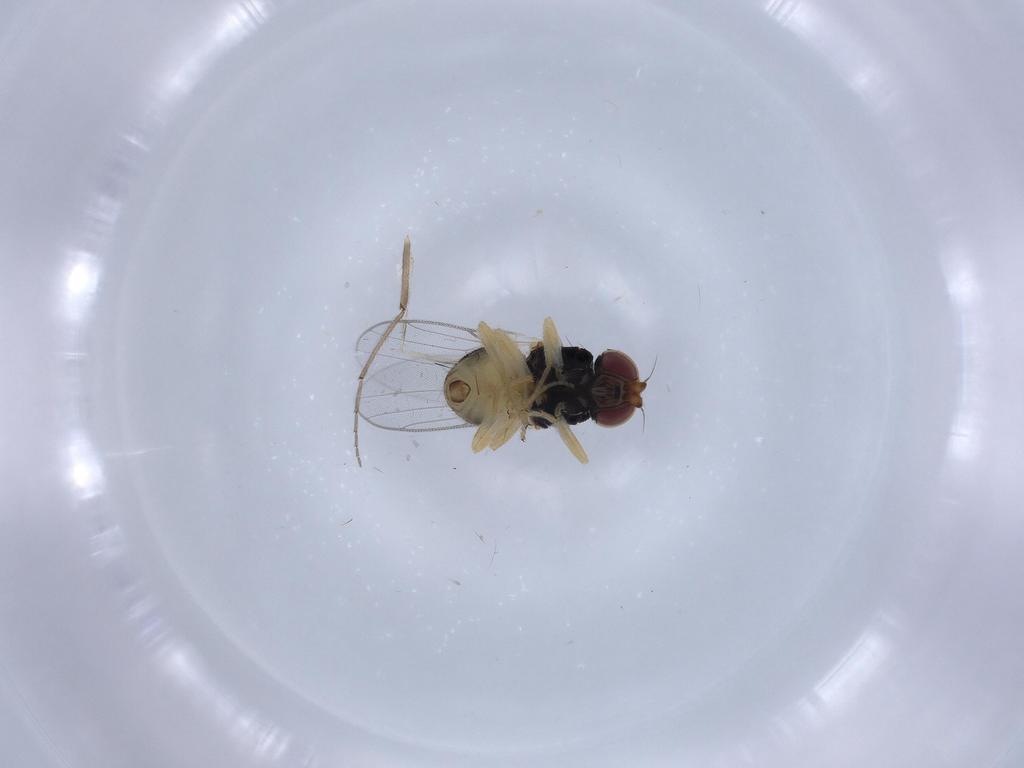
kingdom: Animalia
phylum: Arthropoda
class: Insecta
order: Diptera
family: Chloropidae
